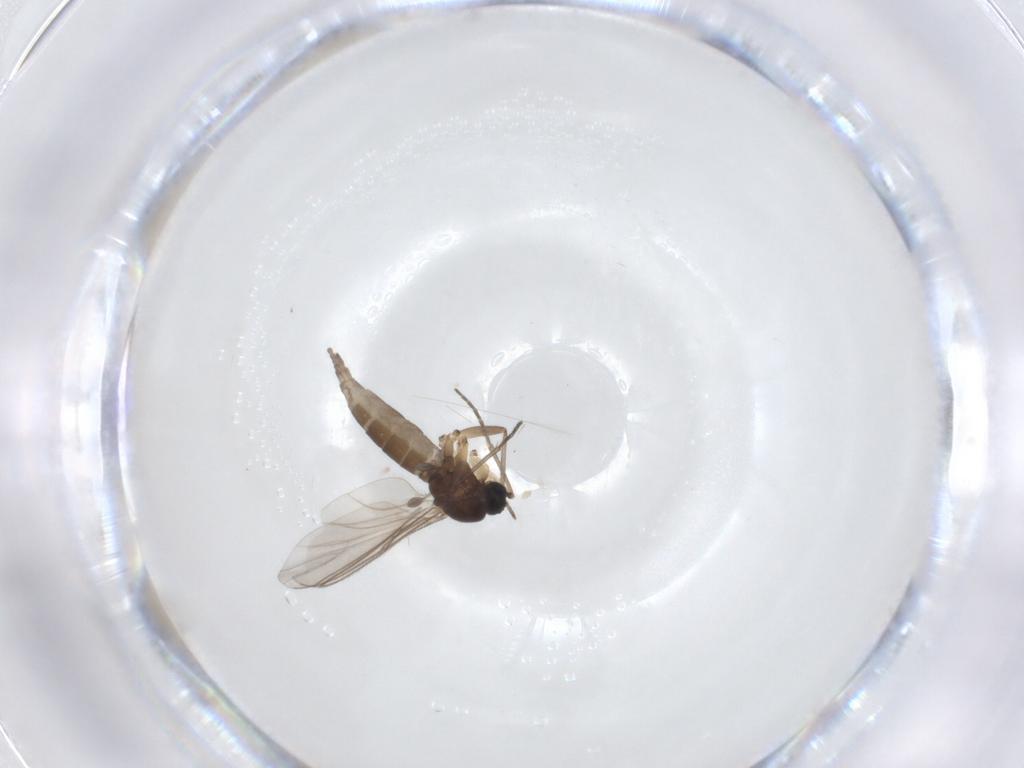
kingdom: Animalia
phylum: Arthropoda
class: Insecta
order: Diptera
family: Sciaridae
